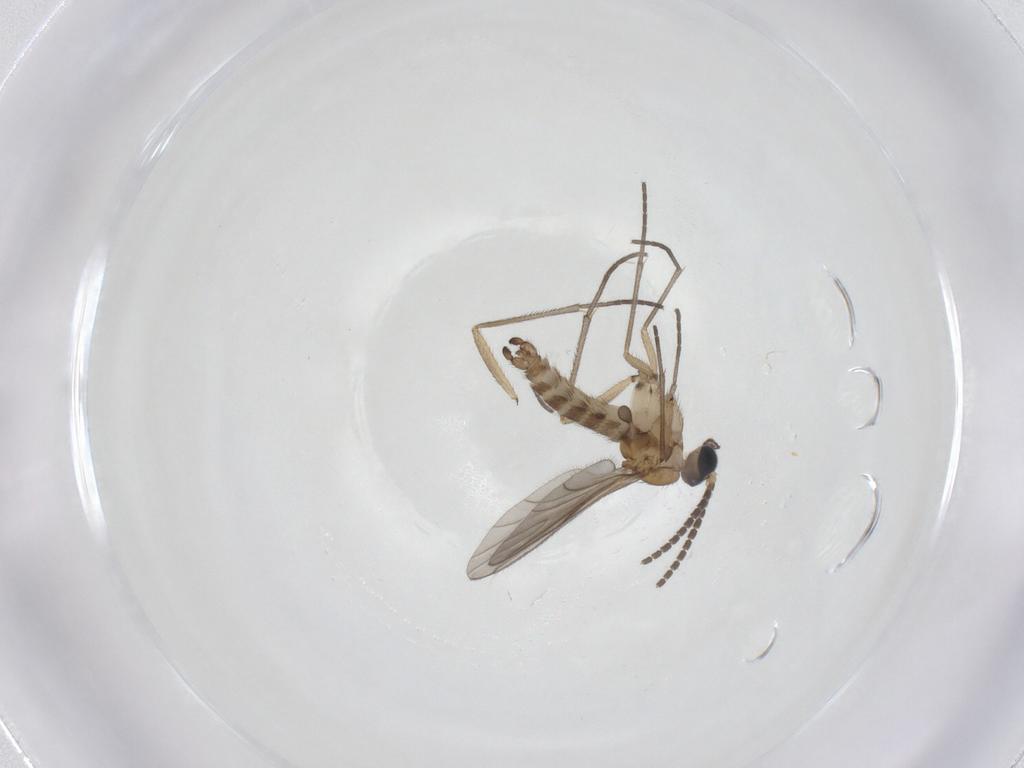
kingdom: Animalia
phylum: Arthropoda
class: Insecta
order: Diptera
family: Sciaridae
